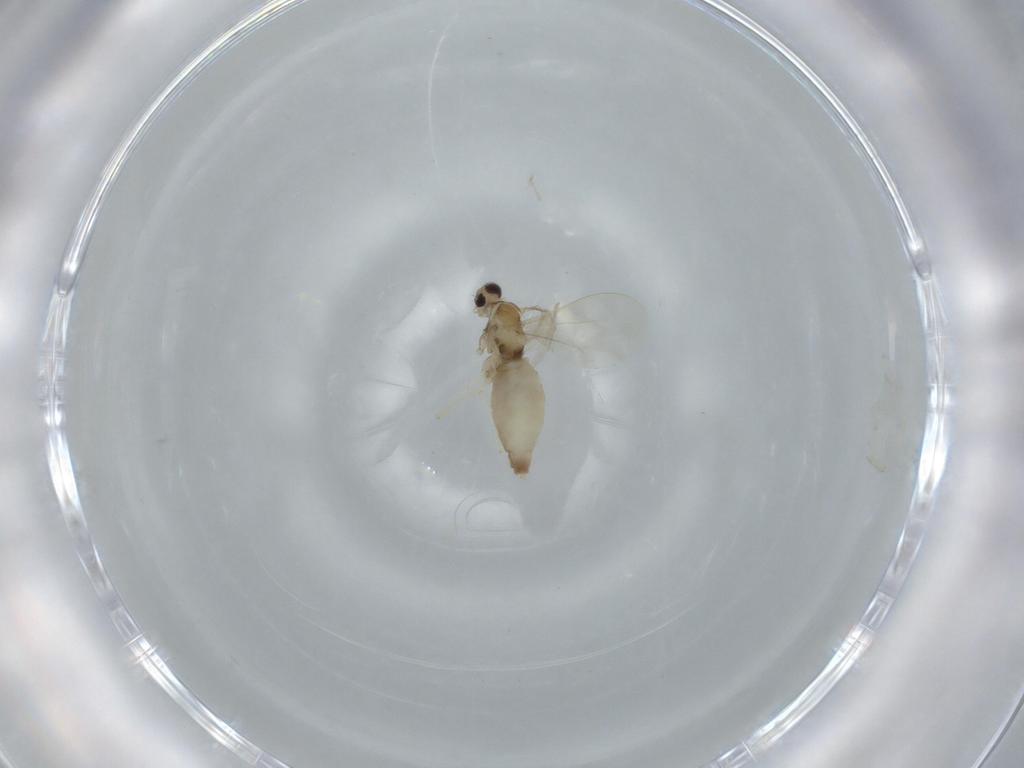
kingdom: Animalia
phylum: Arthropoda
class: Insecta
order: Diptera
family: Cecidomyiidae
